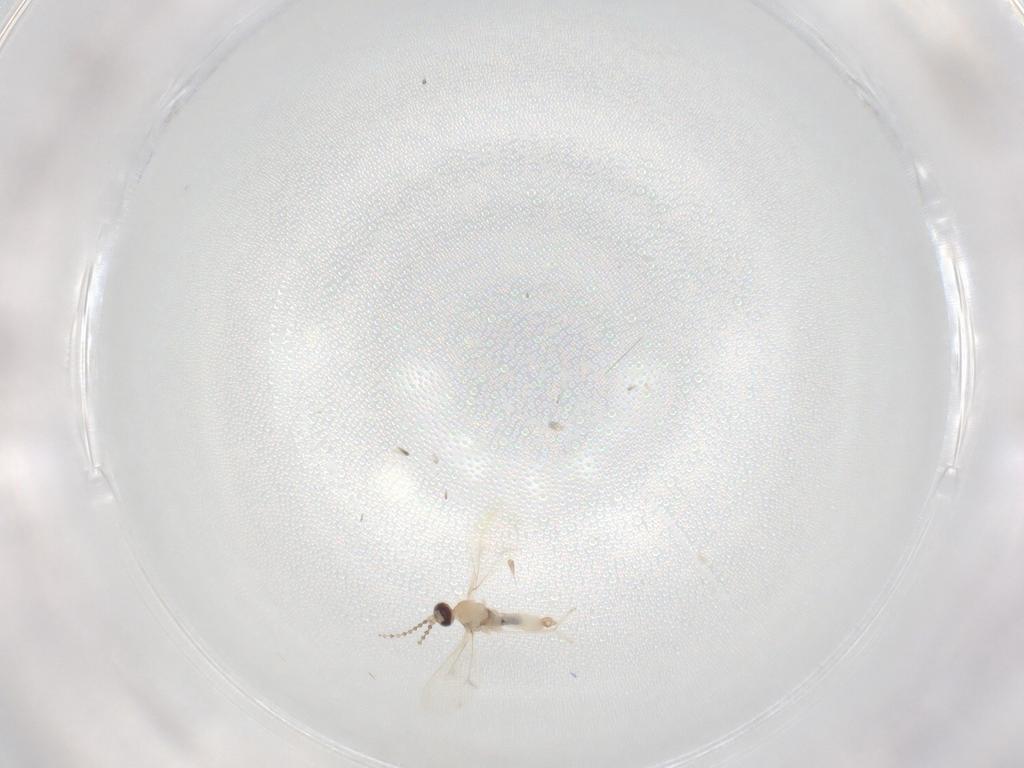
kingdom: Animalia
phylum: Arthropoda
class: Insecta
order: Diptera
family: Cecidomyiidae
